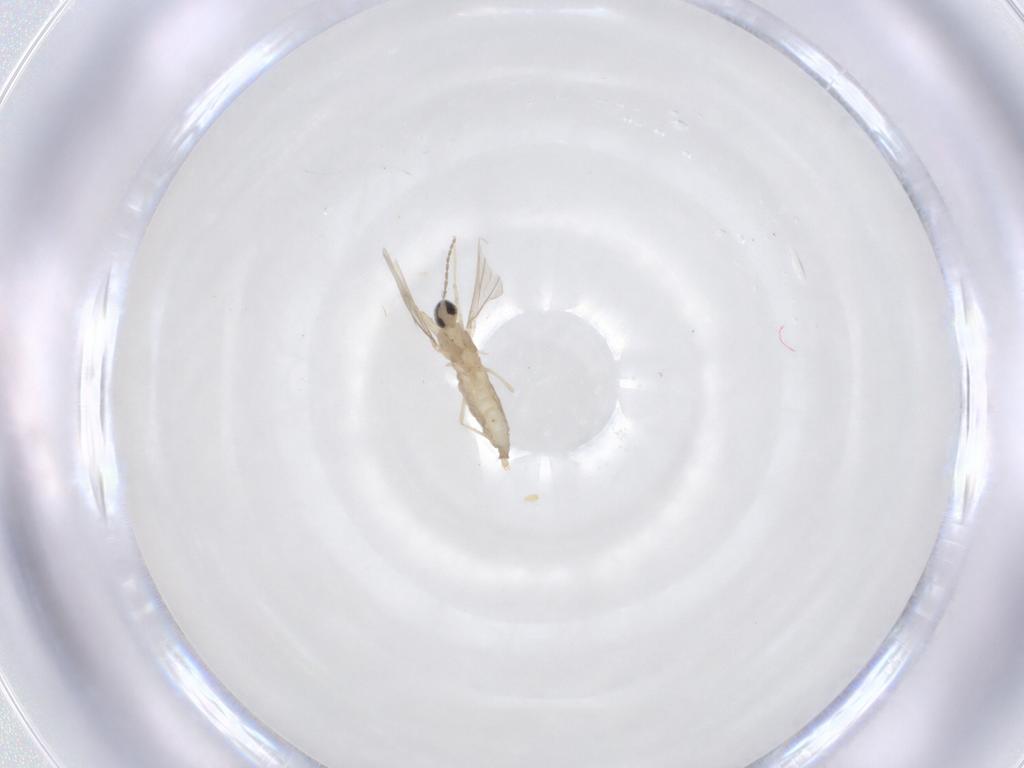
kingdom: Animalia
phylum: Arthropoda
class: Insecta
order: Diptera
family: Cecidomyiidae
